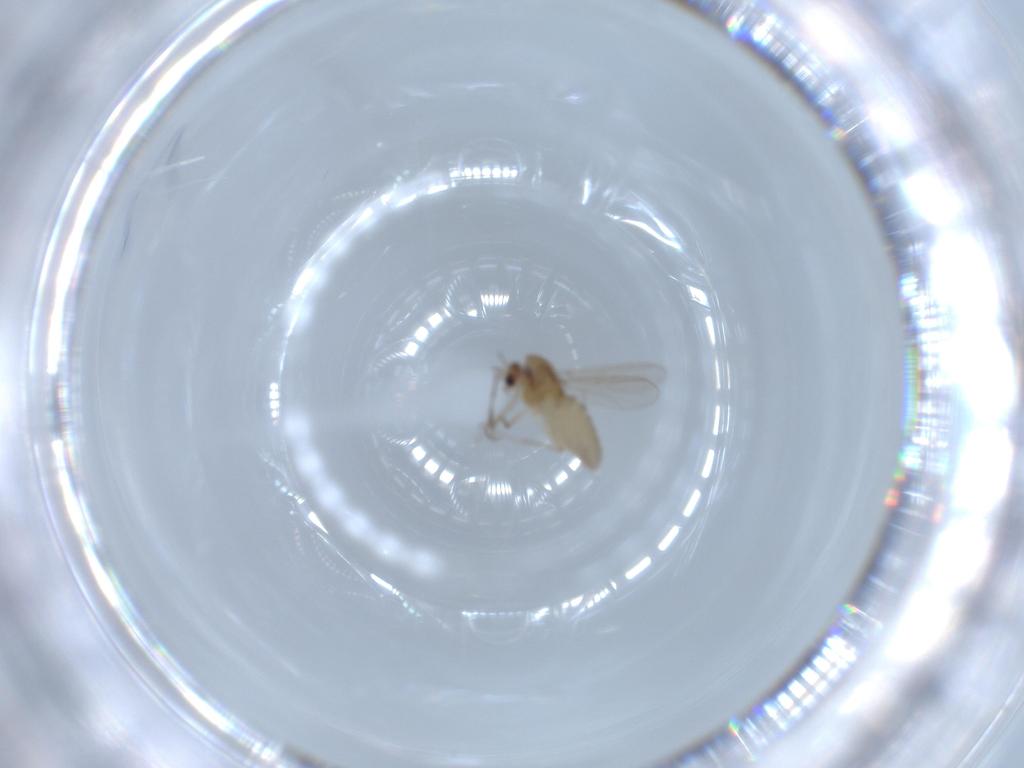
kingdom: Animalia
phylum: Arthropoda
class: Insecta
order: Diptera
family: Chironomidae
